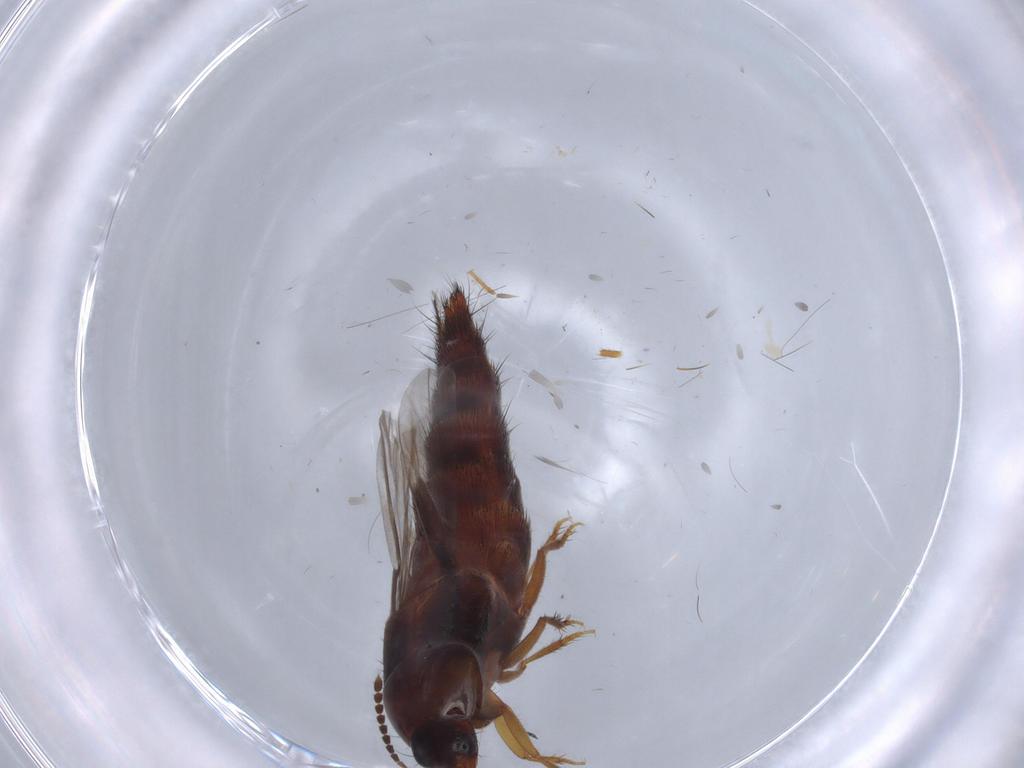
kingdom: Animalia
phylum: Arthropoda
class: Insecta
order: Coleoptera
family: Staphylinidae
